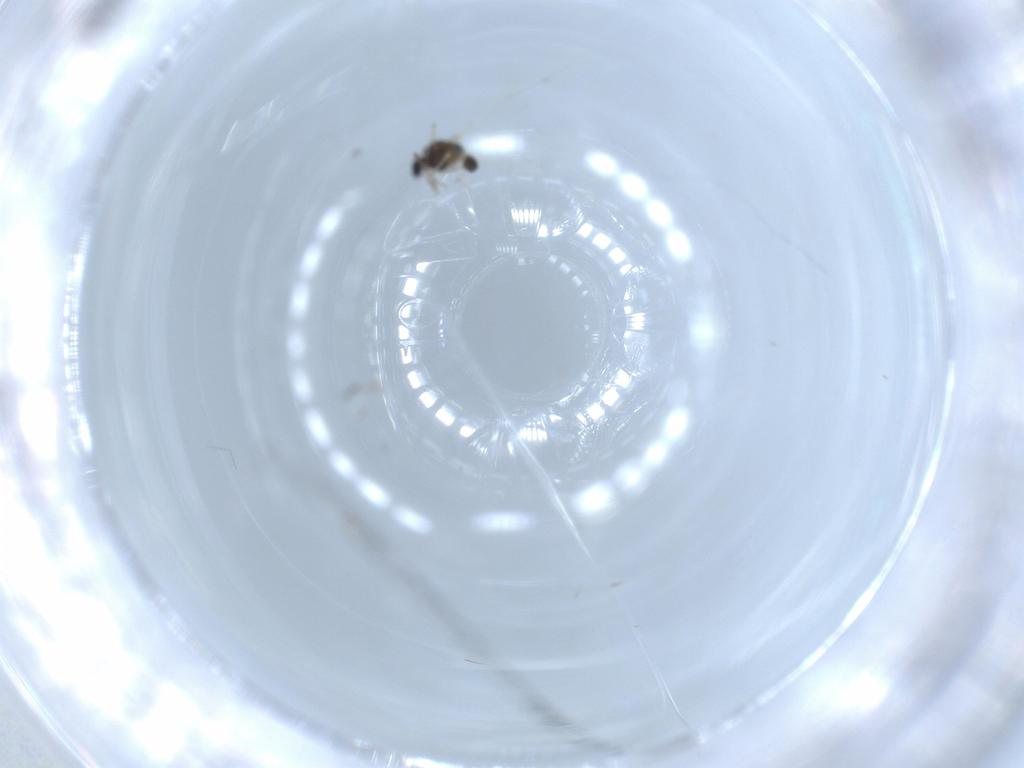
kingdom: Animalia
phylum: Arthropoda
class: Insecta
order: Diptera
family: Chironomidae
